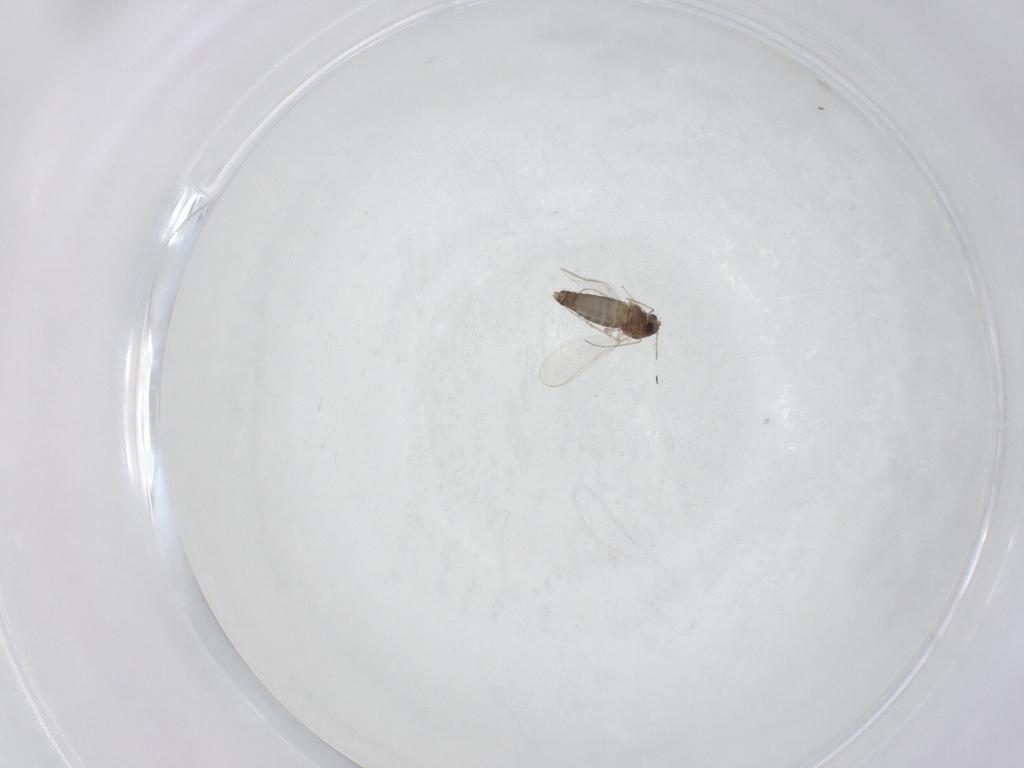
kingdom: Animalia
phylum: Arthropoda
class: Insecta
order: Diptera
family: Chironomidae
